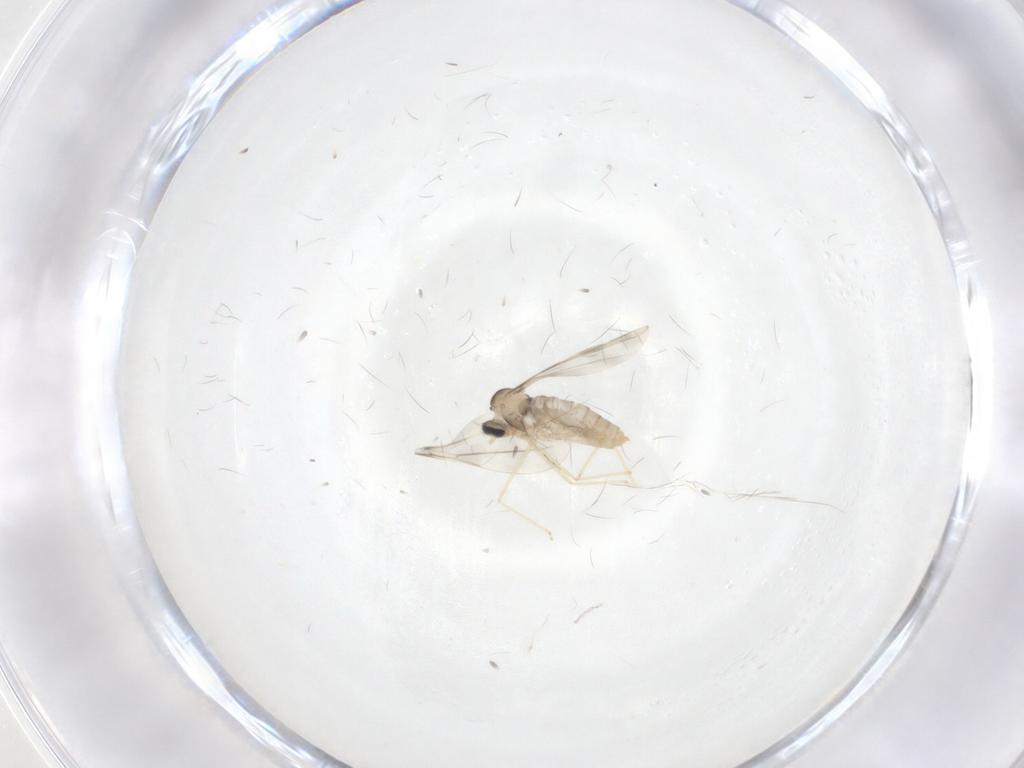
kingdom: Animalia
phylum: Arthropoda
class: Insecta
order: Diptera
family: Cecidomyiidae
